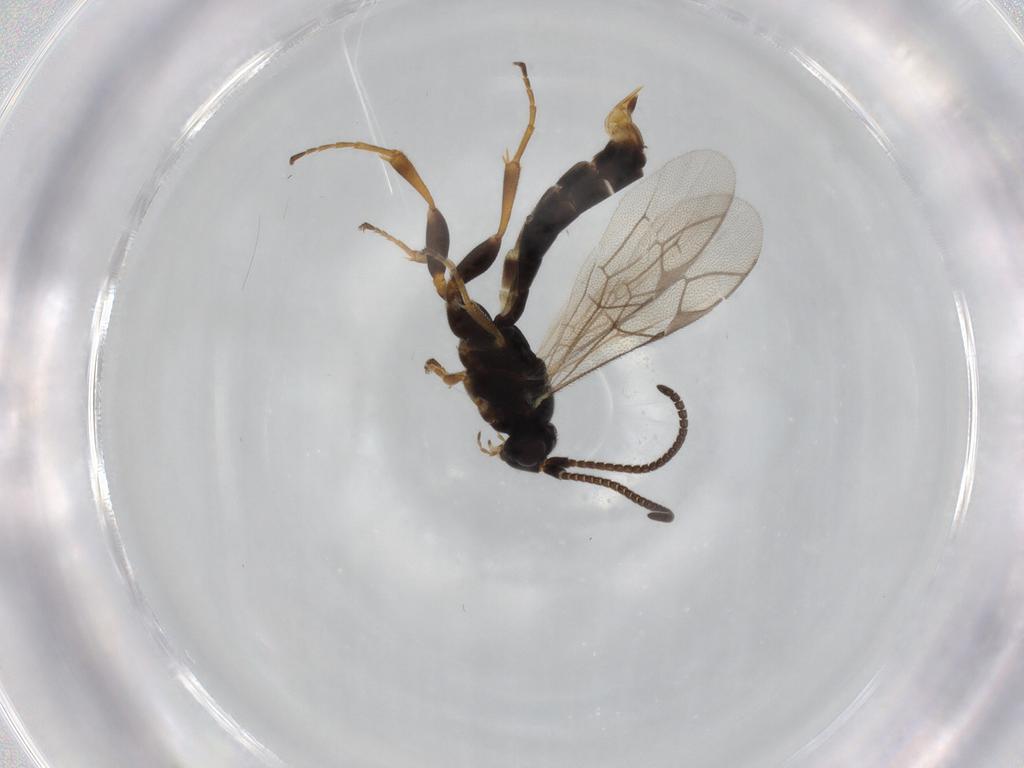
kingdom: Animalia
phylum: Arthropoda
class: Insecta
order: Hymenoptera
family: Ichneumonidae
